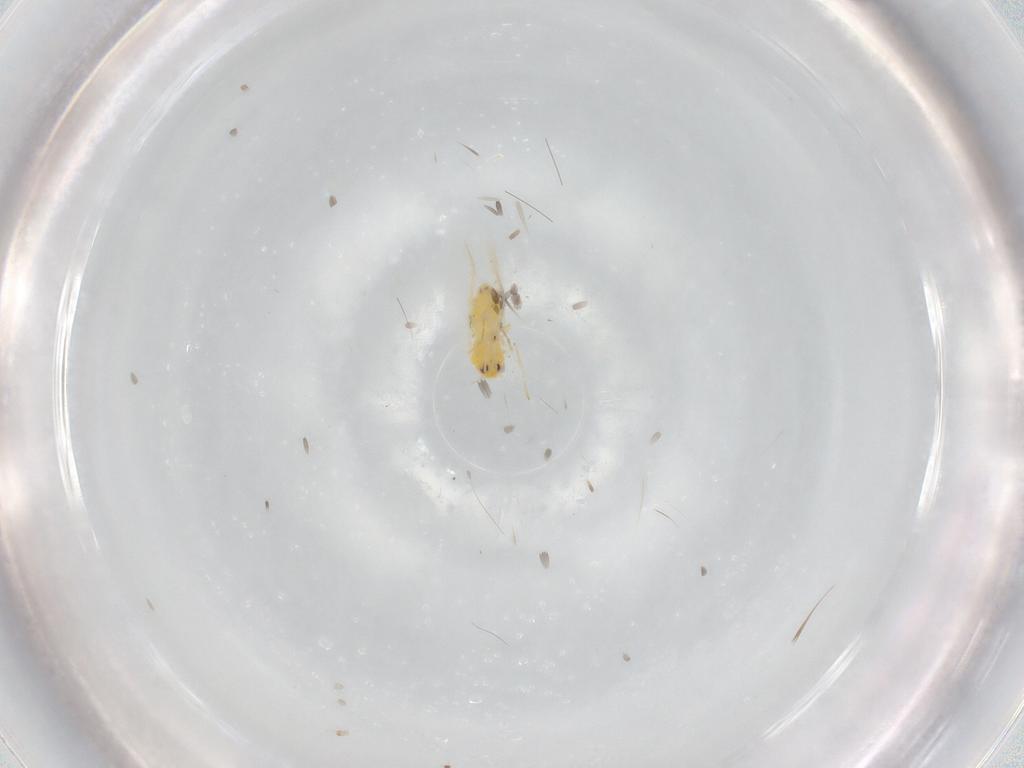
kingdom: Animalia
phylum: Arthropoda
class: Insecta
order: Hemiptera
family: Aleyrodidae
